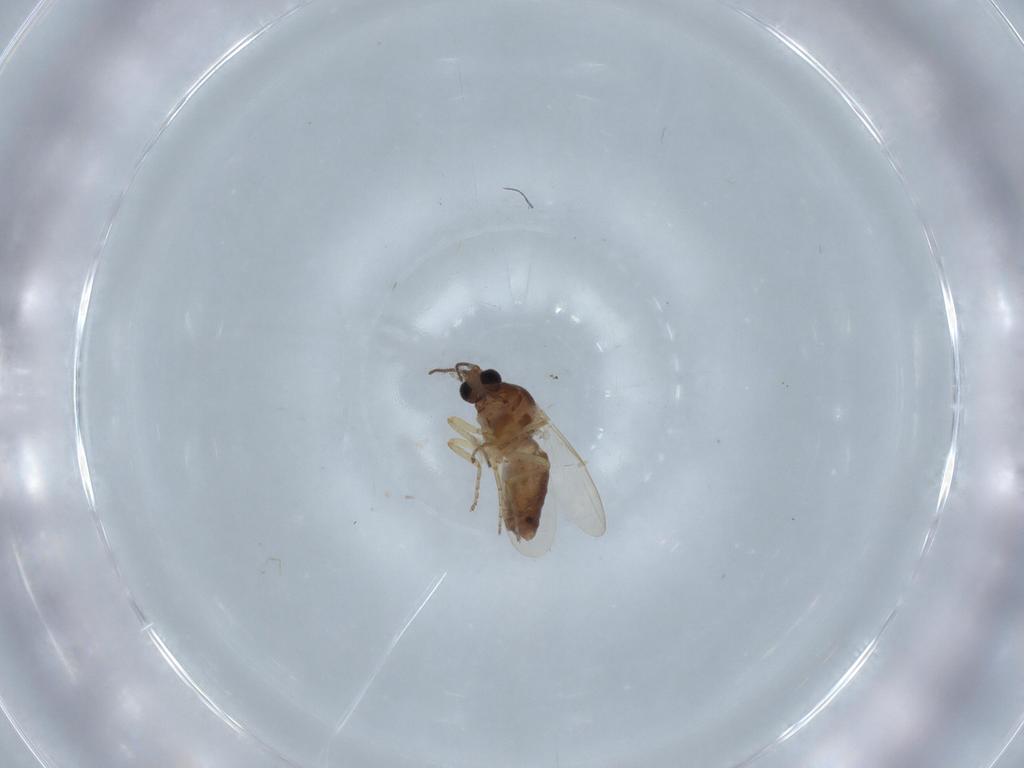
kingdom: Animalia
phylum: Arthropoda
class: Insecta
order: Diptera
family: Ceratopogonidae
